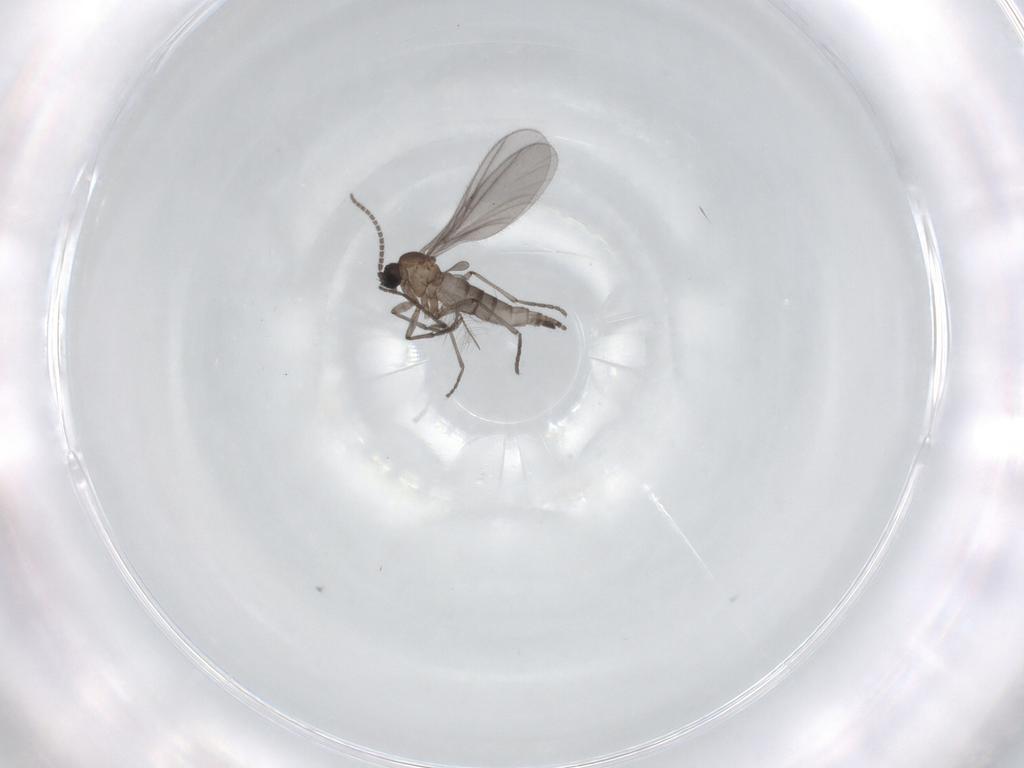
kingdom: Animalia
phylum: Arthropoda
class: Insecta
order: Diptera
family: Sciaridae
